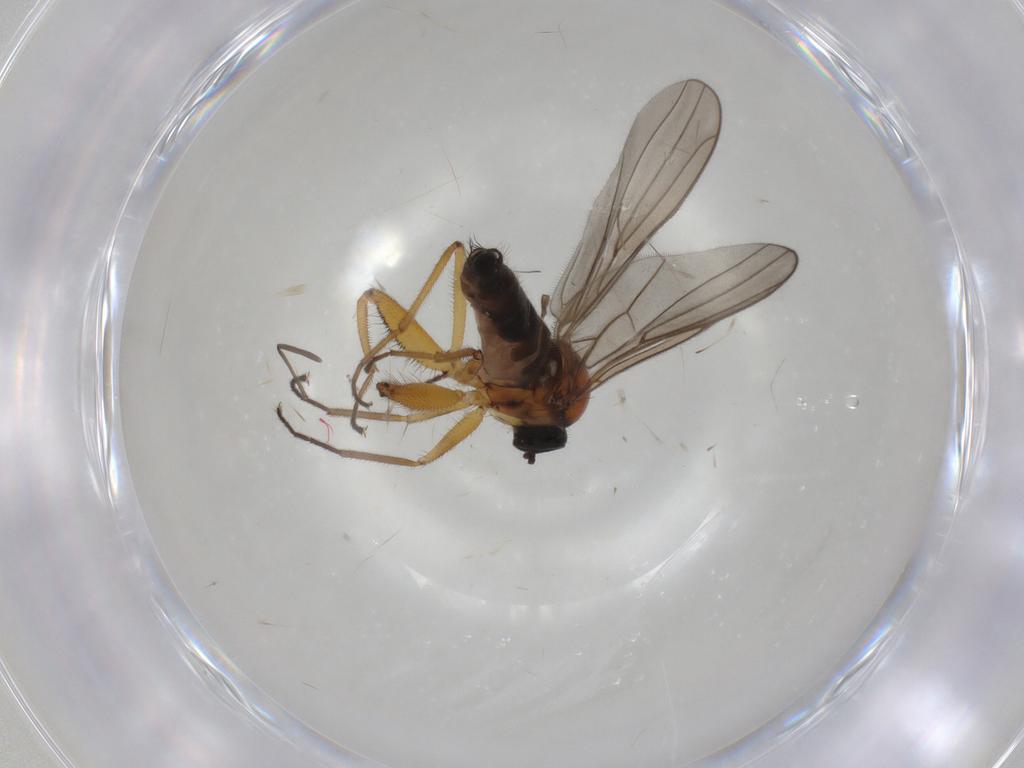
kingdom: Animalia
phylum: Arthropoda
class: Insecta
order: Diptera
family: Hybotidae
